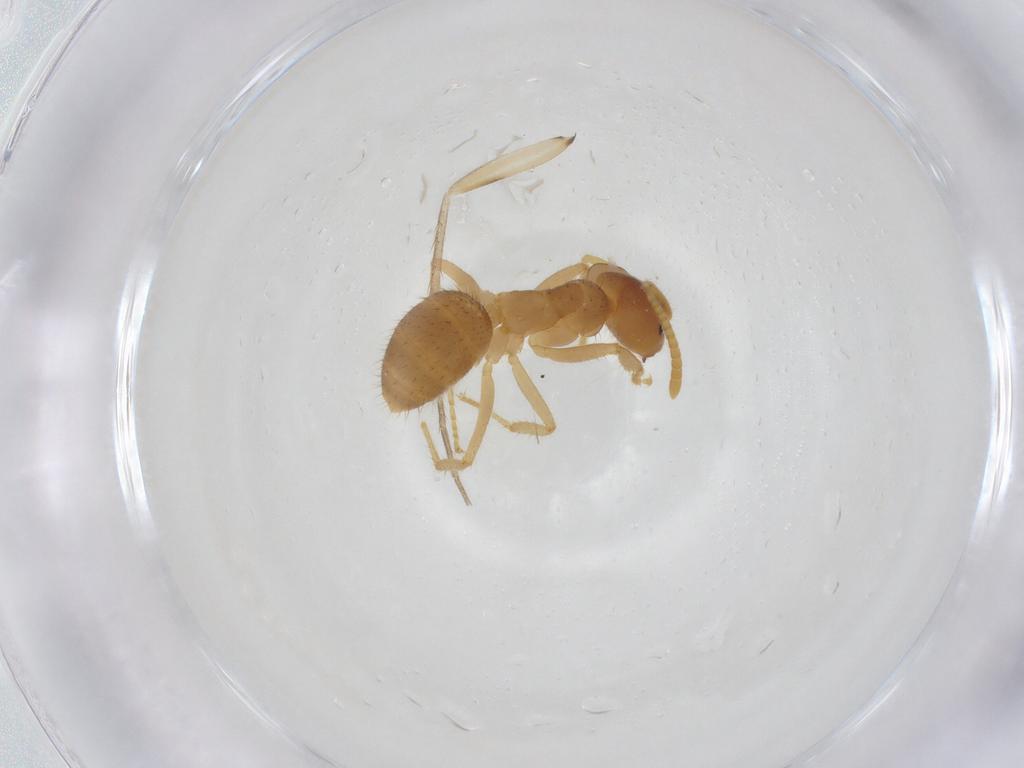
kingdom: Animalia
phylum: Arthropoda
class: Insecta
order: Hymenoptera
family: Formicidae
